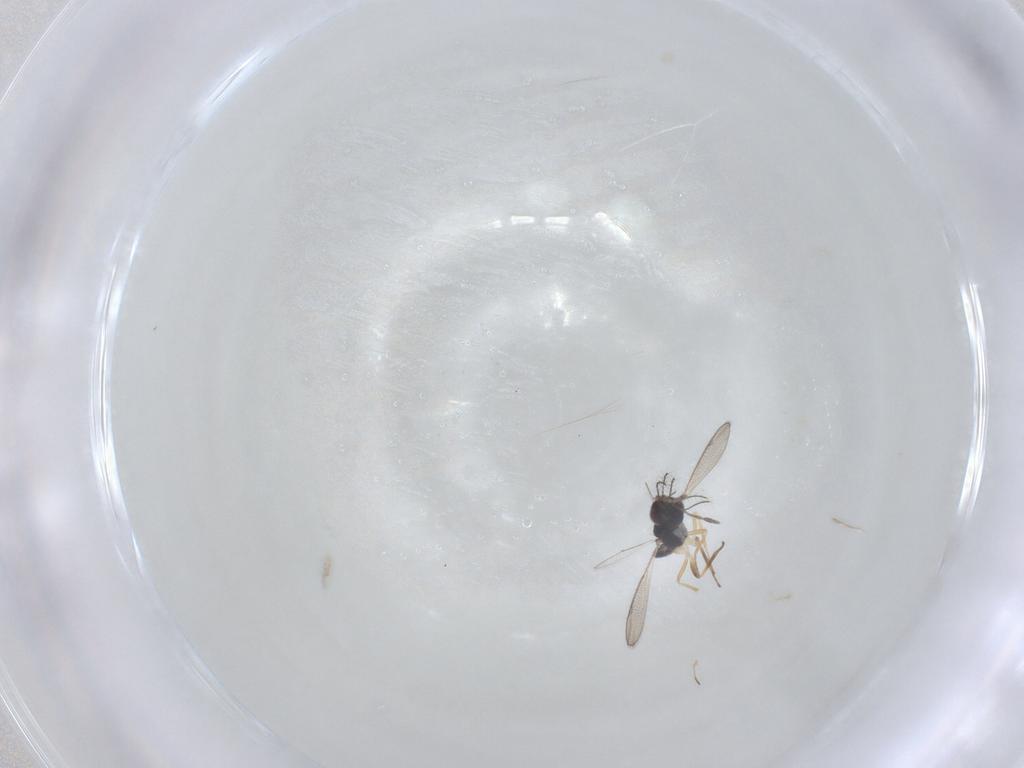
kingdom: Animalia
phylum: Arthropoda
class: Insecta
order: Hymenoptera
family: Eulophidae
